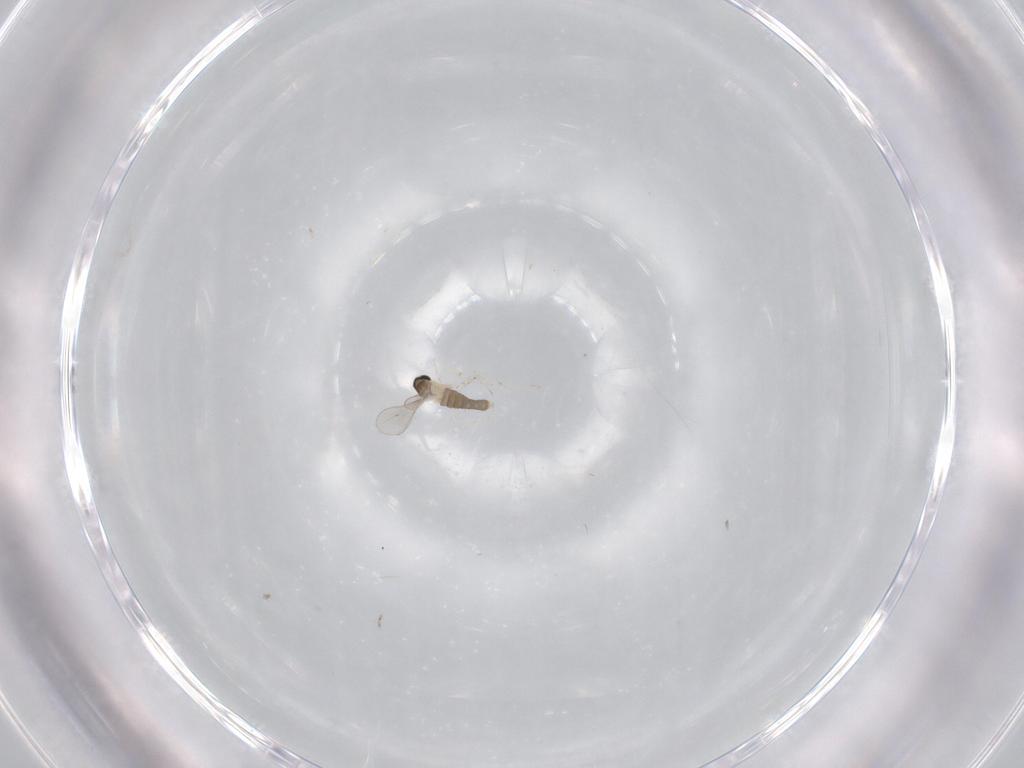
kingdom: Animalia
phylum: Arthropoda
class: Insecta
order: Diptera
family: Ceratopogonidae
